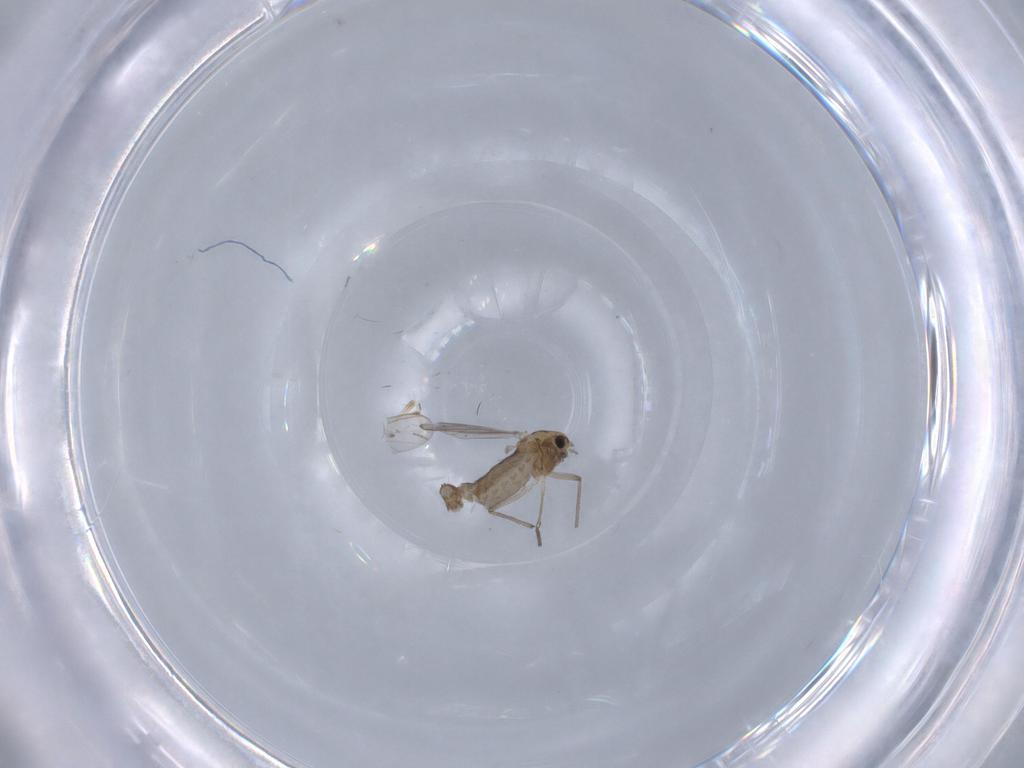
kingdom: Animalia
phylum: Arthropoda
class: Insecta
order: Diptera
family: Chironomidae
